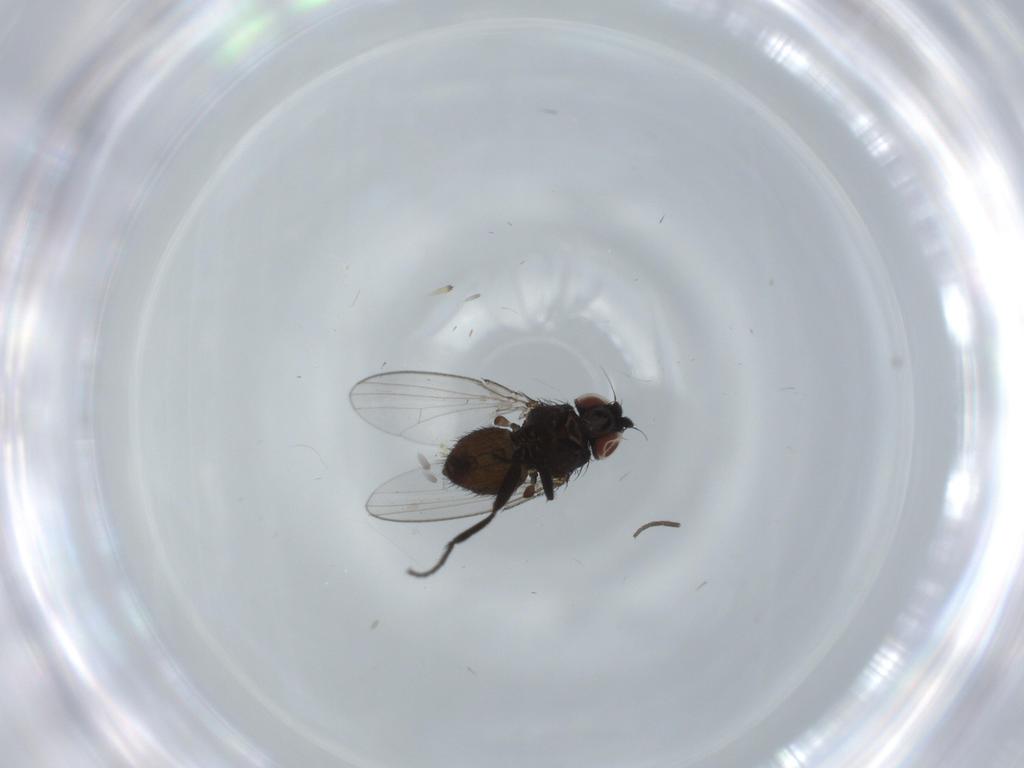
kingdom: Animalia
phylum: Arthropoda
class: Insecta
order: Diptera
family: Milichiidae
